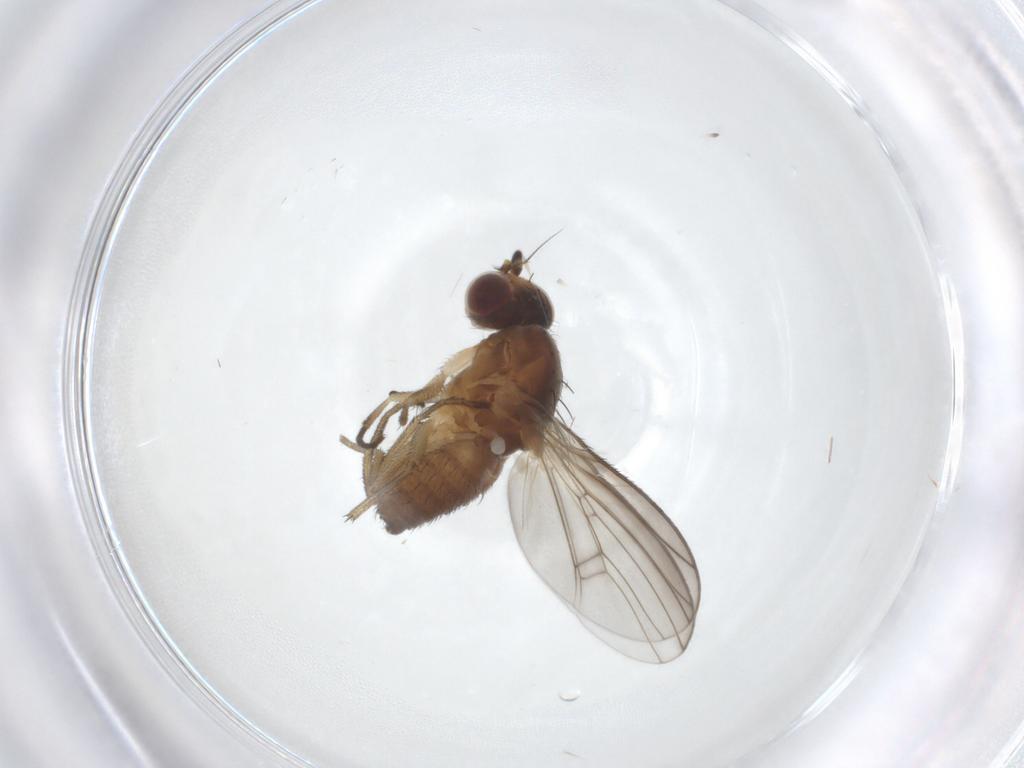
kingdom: Animalia
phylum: Arthropoda
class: Insecta
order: Diptera
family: Heleomyzidae
